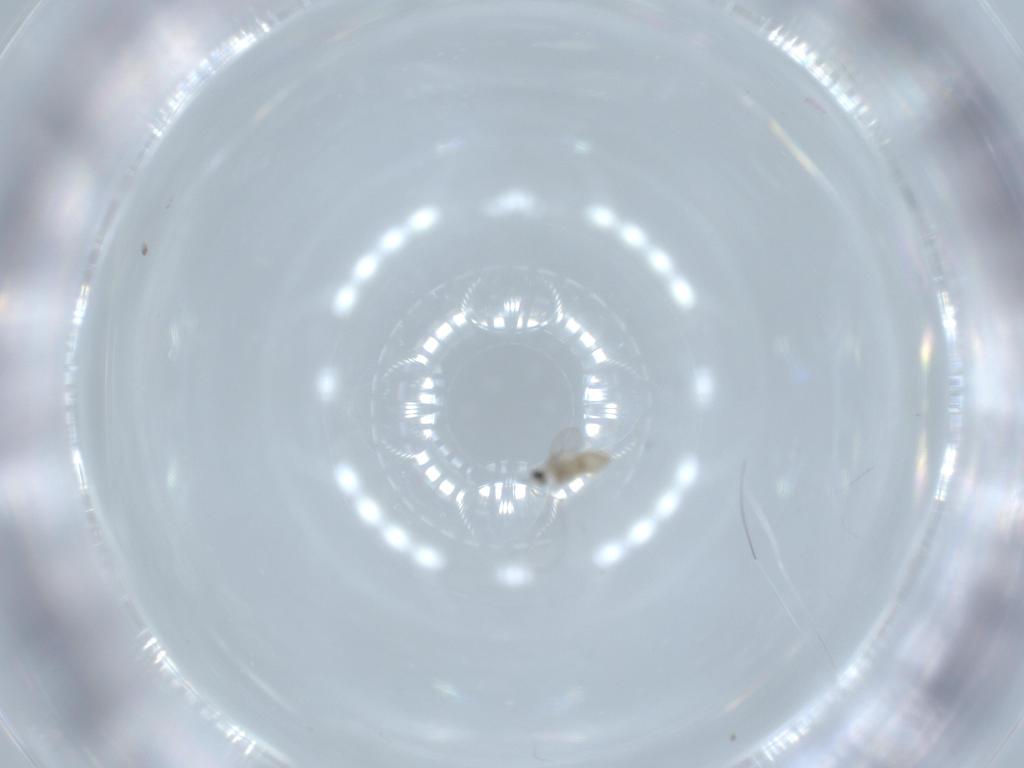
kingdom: Animalia
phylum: Arthropoda
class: Insecta
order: Diptera
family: Cecidomyiidae
